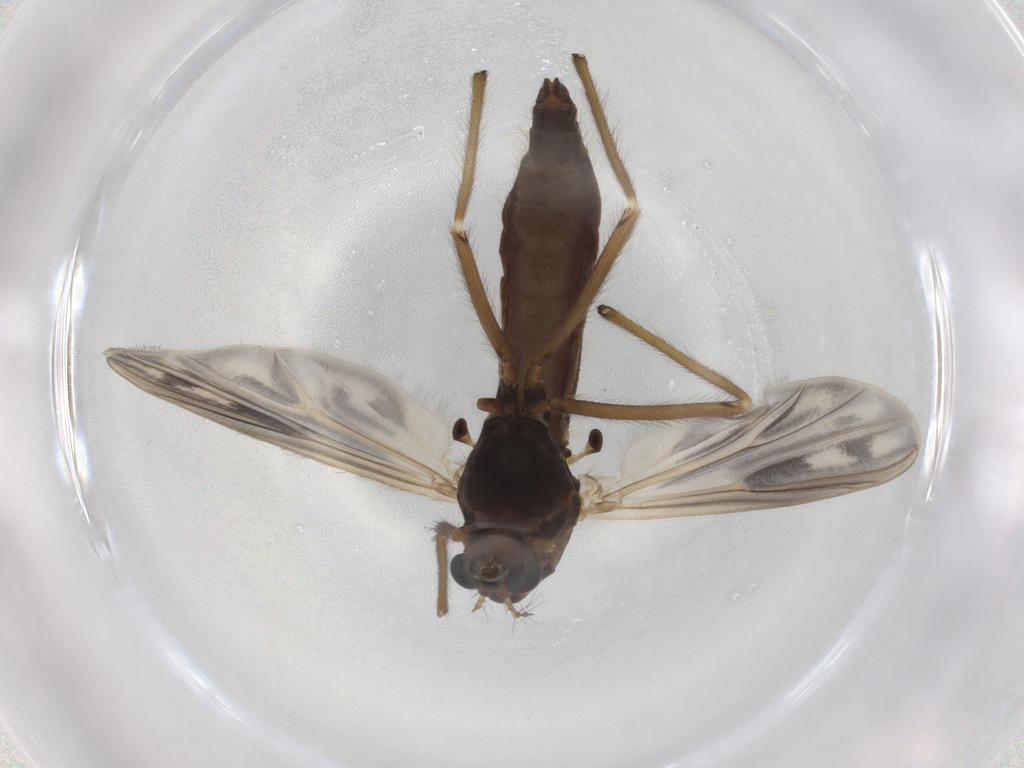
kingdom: Animalia
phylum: Arthropoda
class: Insecta
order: Diptera
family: Chironomidae
